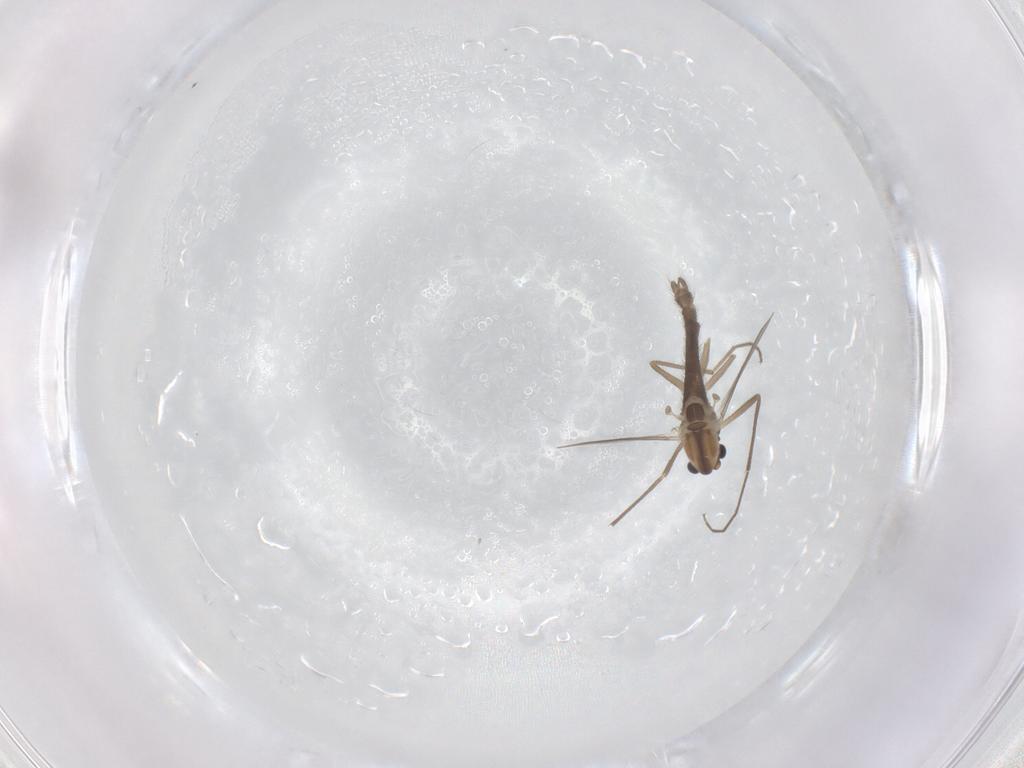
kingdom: Animalia
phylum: Arthropoda
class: Insecta
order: Diptera
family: Chironomidae
